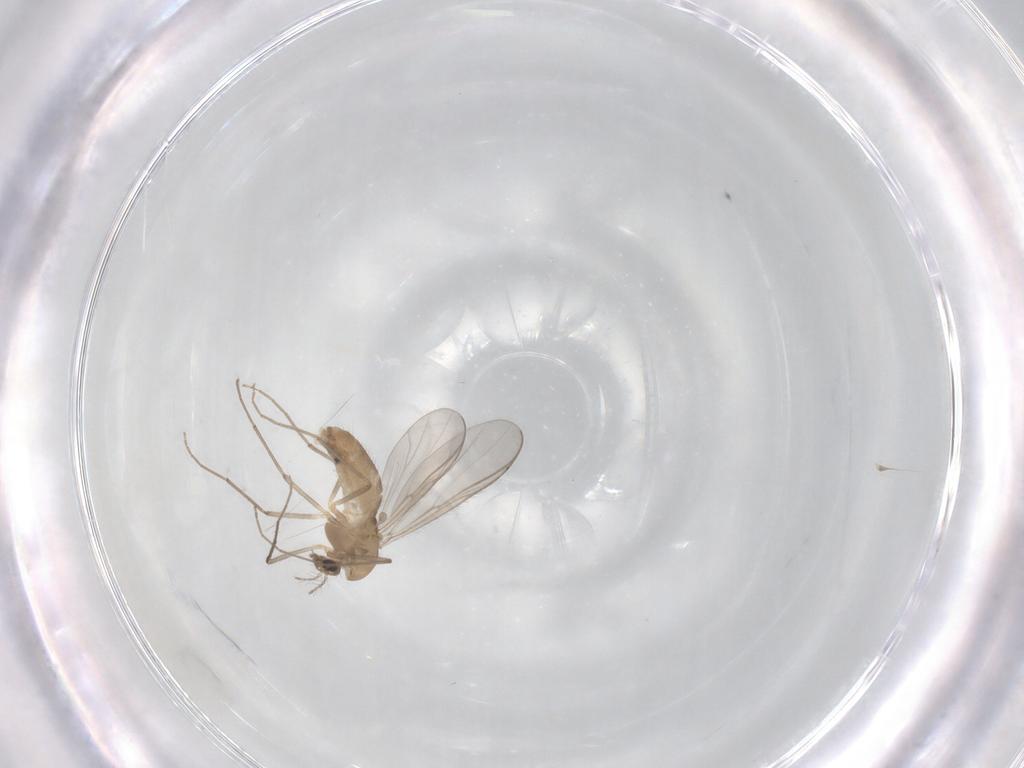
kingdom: Animalia
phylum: Arthropoda
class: Insecta
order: Diptera
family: Chironomidae
